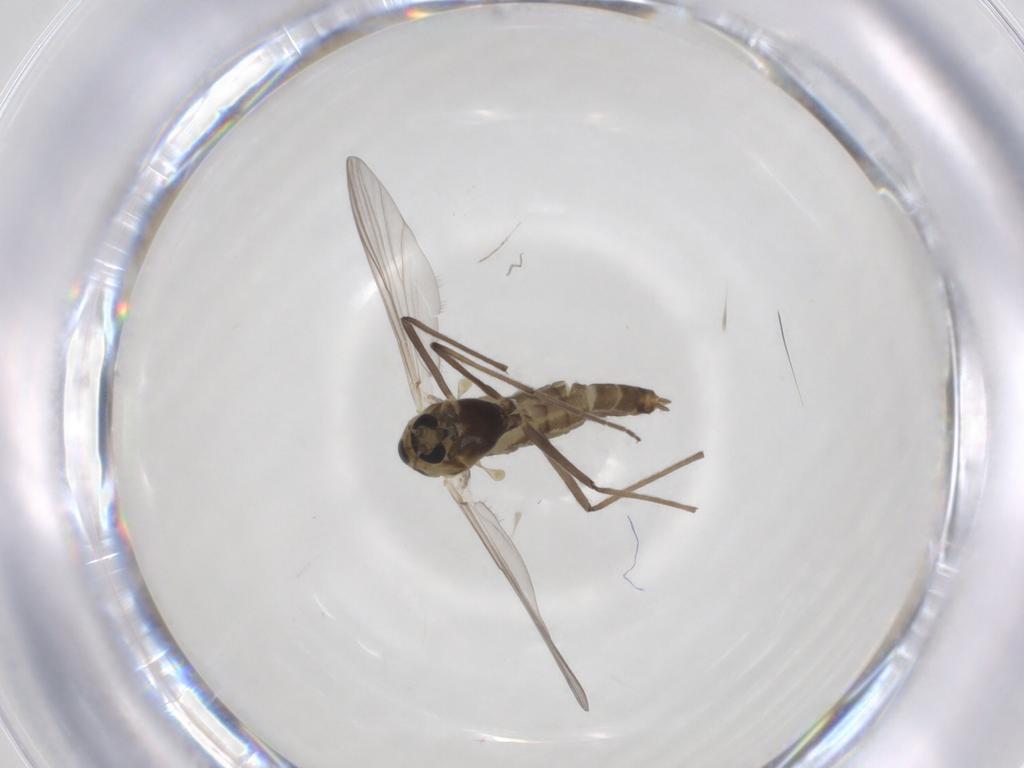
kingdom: Animalia
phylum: Arthropoda
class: Insecta
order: Diptera
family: Chironomidae
